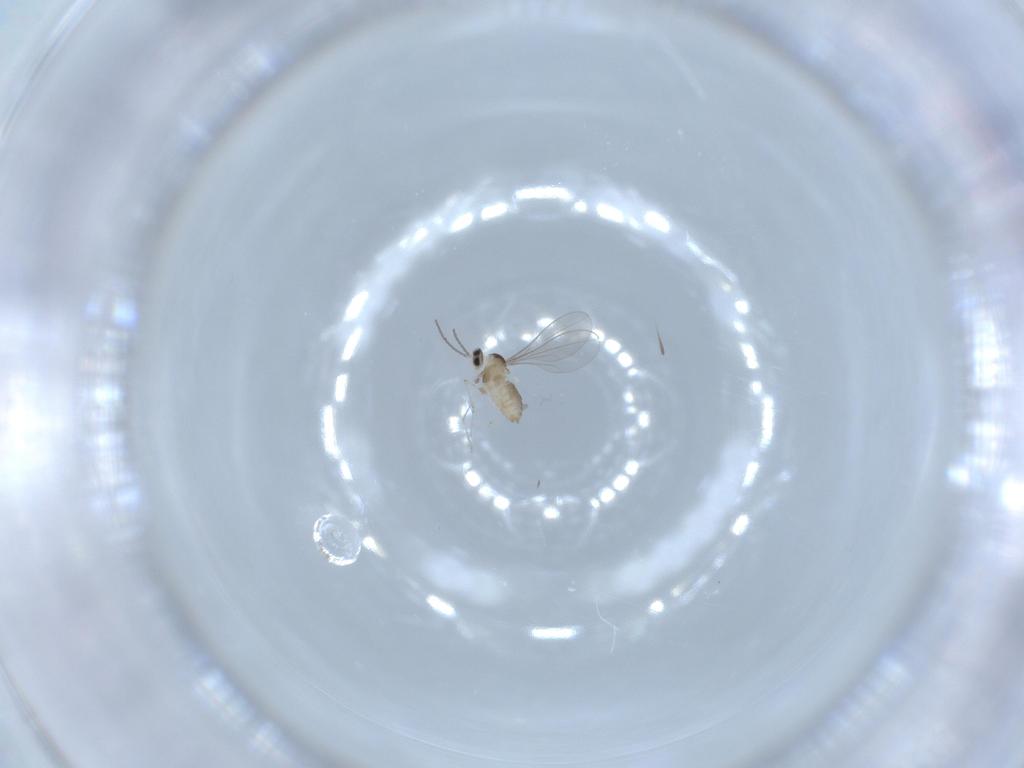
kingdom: Animalia
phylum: Arthropoda
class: Insecta
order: Diptera
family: Cecidomyiidae
